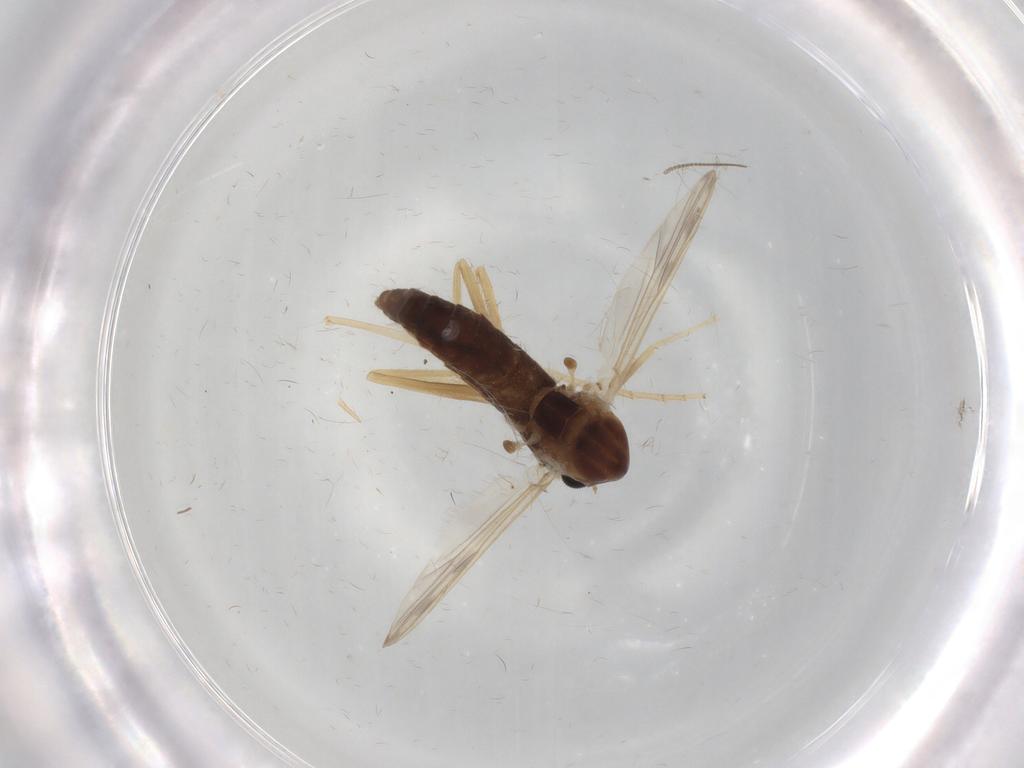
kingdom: Animalia
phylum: Arthropoda
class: Insecta
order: Diptera
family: Chironomidae
